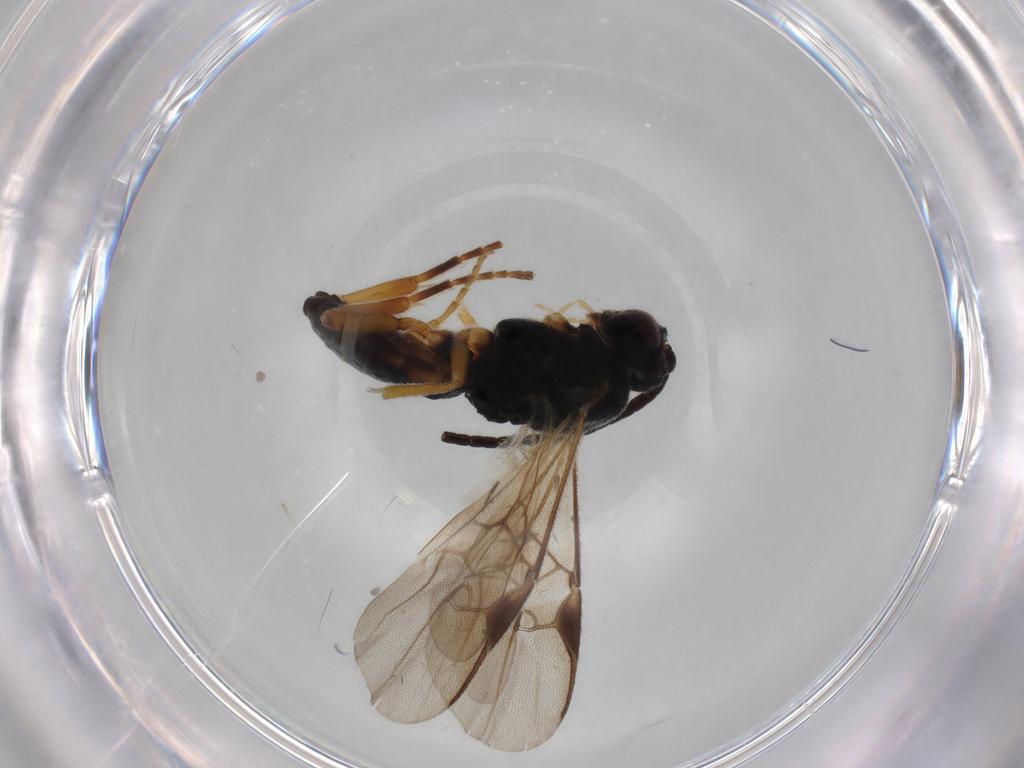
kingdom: Animalia
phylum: Arthropoda
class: Insecta
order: Hymenoptera
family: Braconidae
